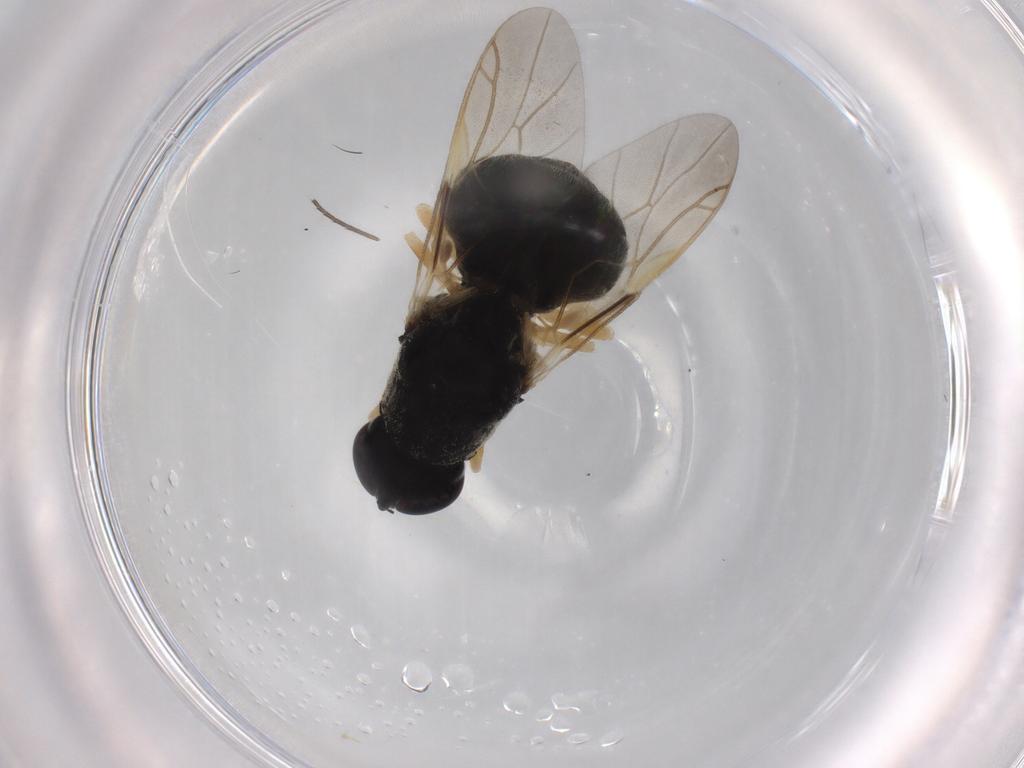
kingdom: Animalia
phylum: Arthropoda
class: Insecta
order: Diptera
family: Stratiomyidae
